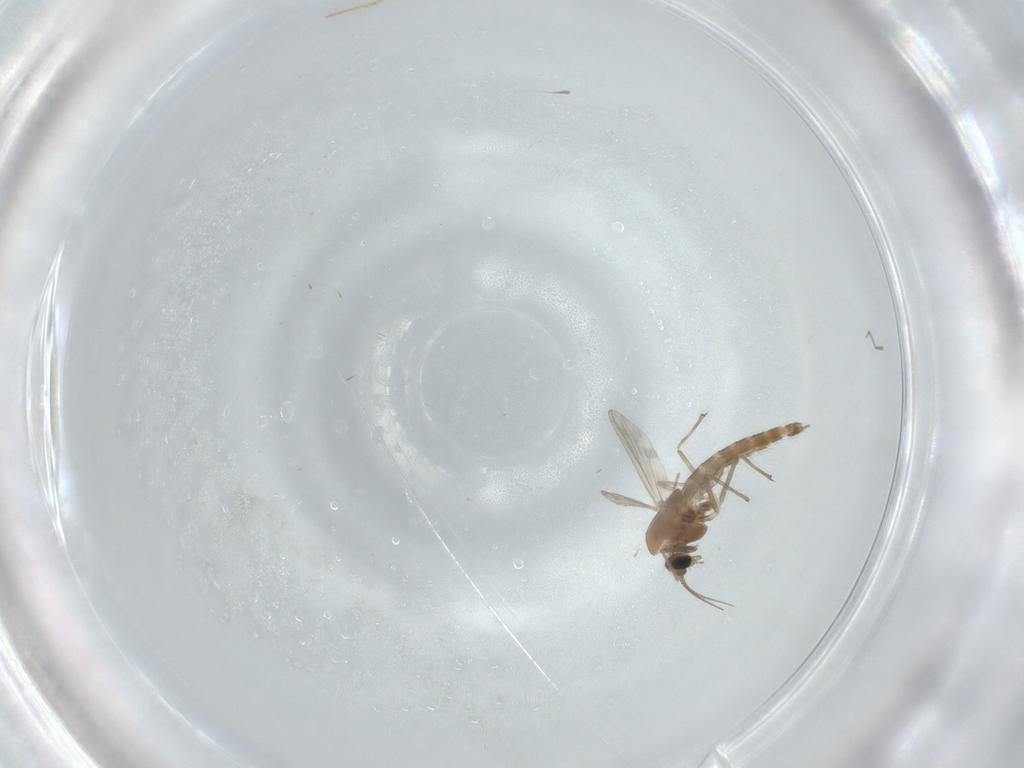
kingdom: Animalia
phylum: Arthropoda
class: Insecta
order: Diptera
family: Chironomidae
